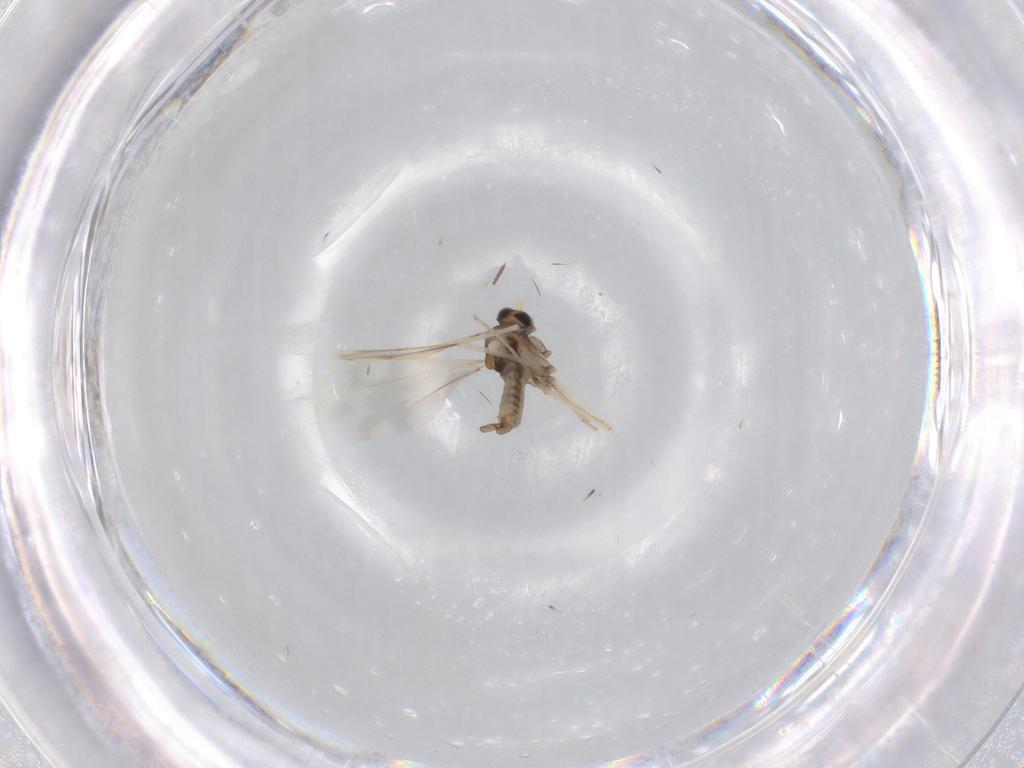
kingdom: Animalia
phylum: Arthropoda
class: Insecta
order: Diptera
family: Cecidomyiidae
